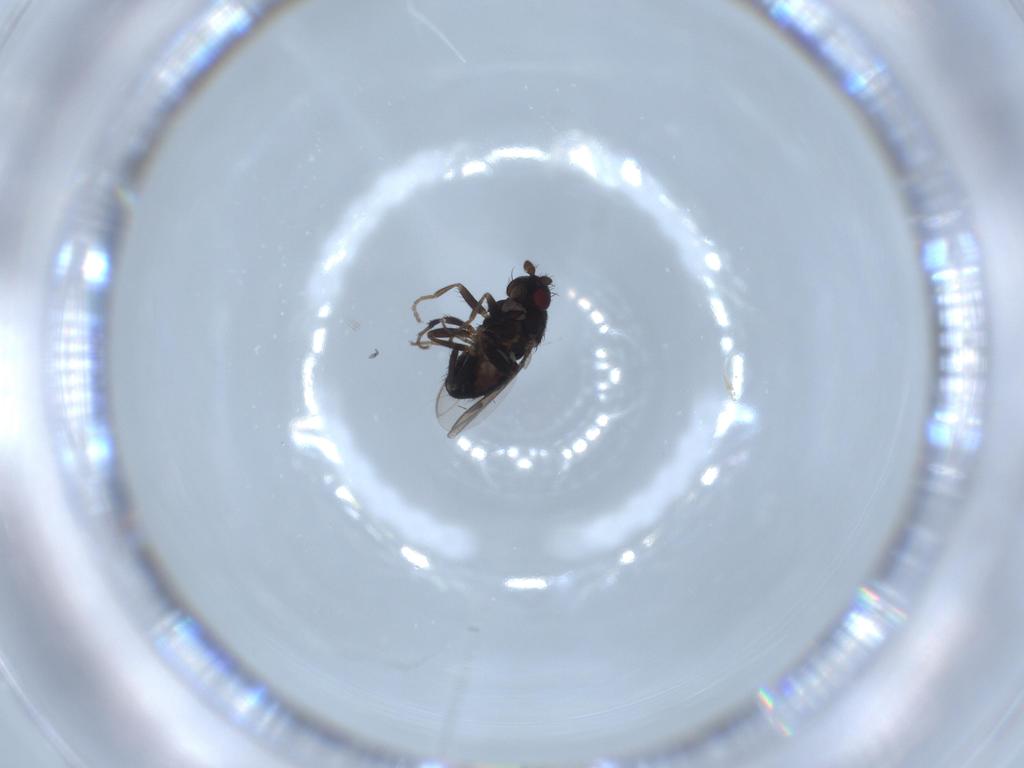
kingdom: Animalia
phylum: Arthropoda
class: Insecta
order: Diptera
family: Sphaeroceridae
